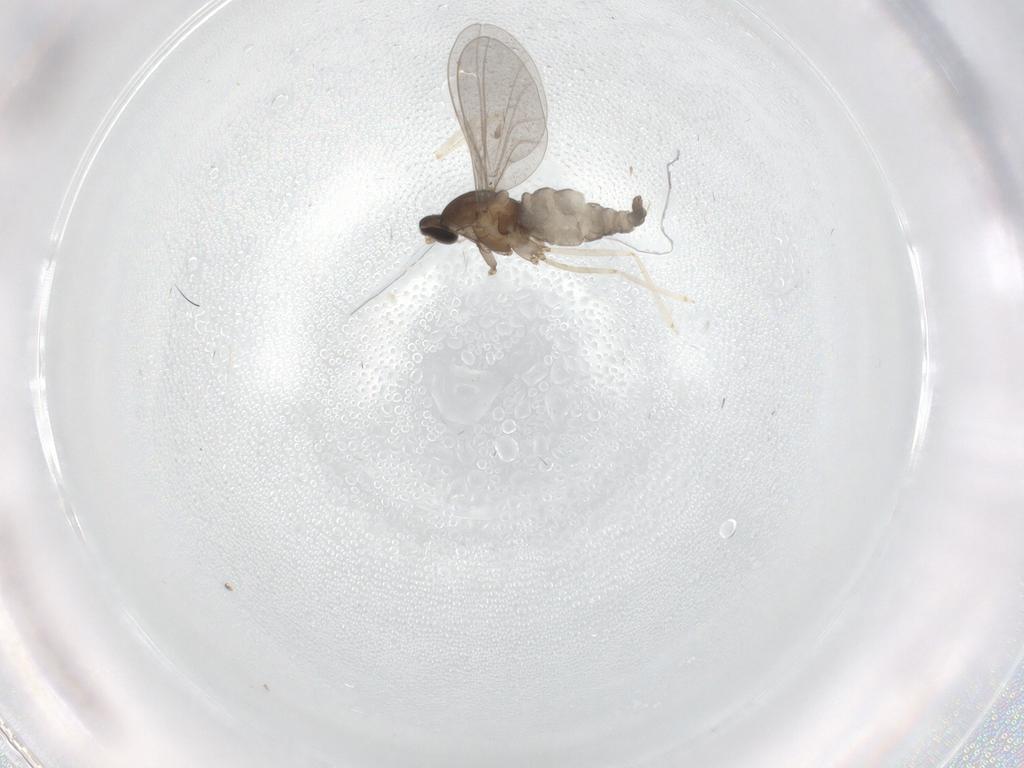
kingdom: Animalia
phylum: Arthropoda
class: Insecta
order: Diptera
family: Cecidomyiidae
